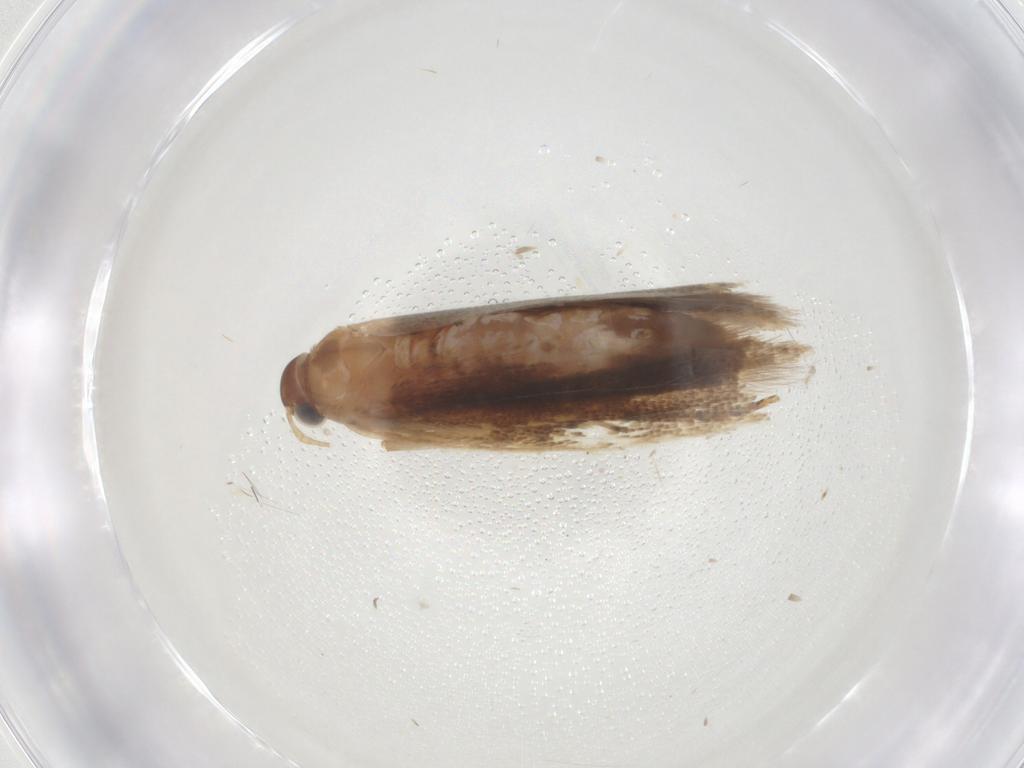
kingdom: Animalia
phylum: Arthropoda
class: Insecta
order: Lepidoptera
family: Gelechiidae
